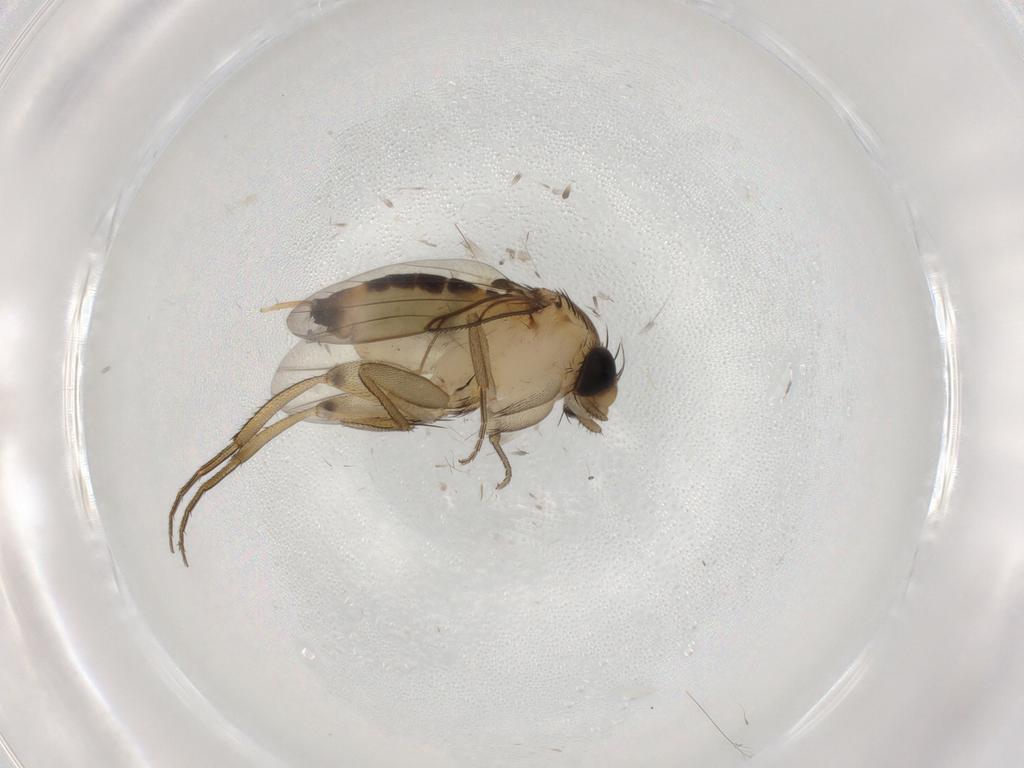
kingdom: Animalia
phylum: Arthropoda
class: Insecta
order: Diptera
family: Phoridae
